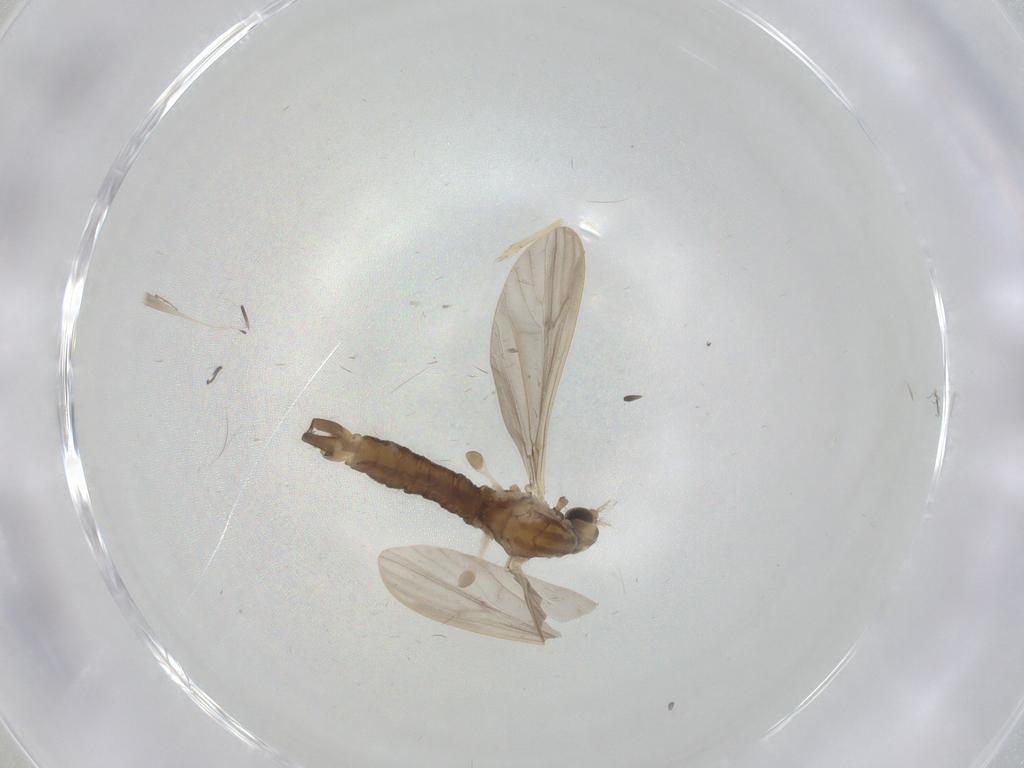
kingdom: Animalia
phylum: Arthropoda
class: Insecta
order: Diptera
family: Limoniidae
